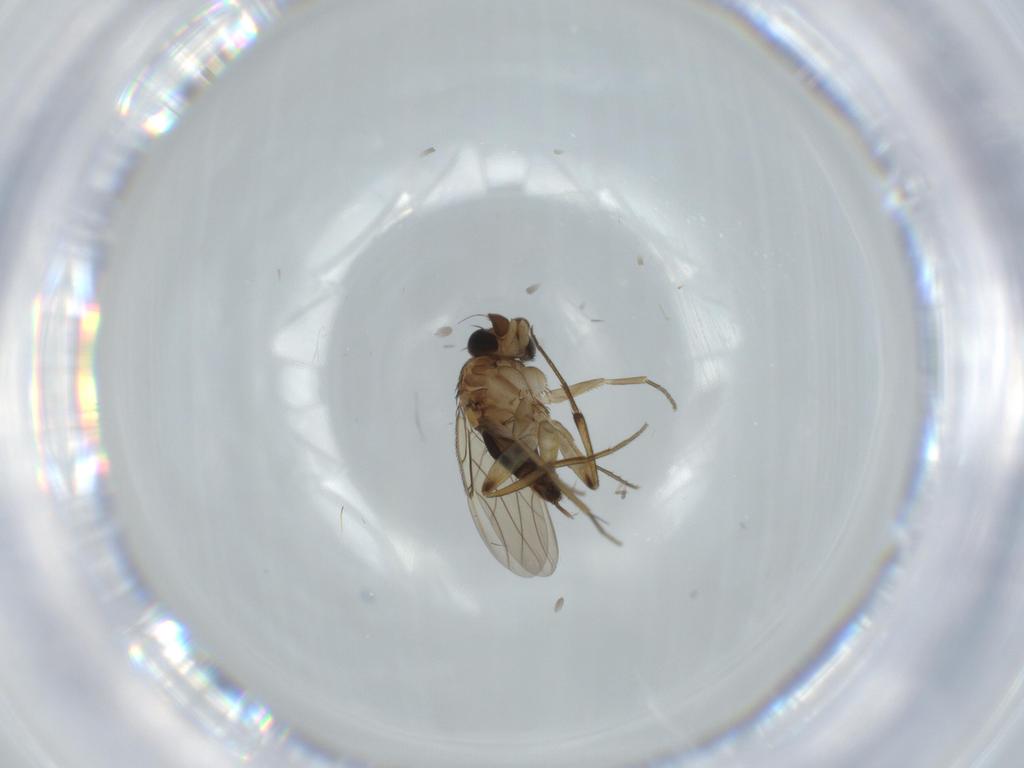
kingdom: Animalia
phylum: Arthropoda
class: Insecta
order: Diptera
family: Phoridae
